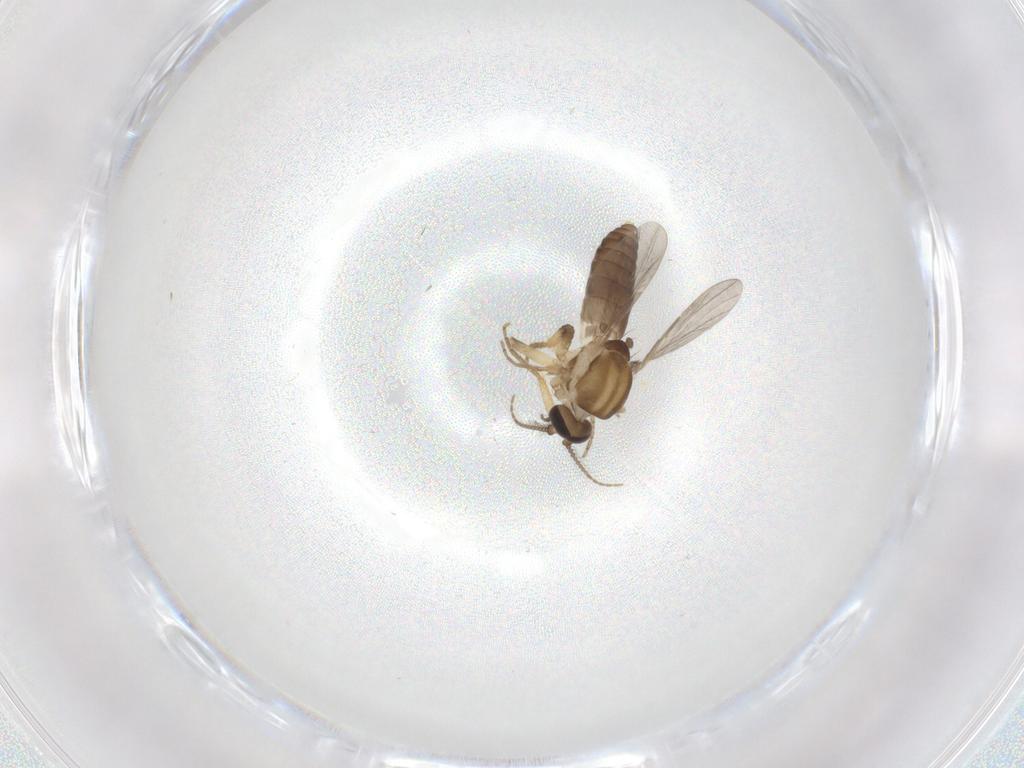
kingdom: Animalia
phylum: Arthropoda
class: Insecta
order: Diptera
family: Ceratopogonidae
